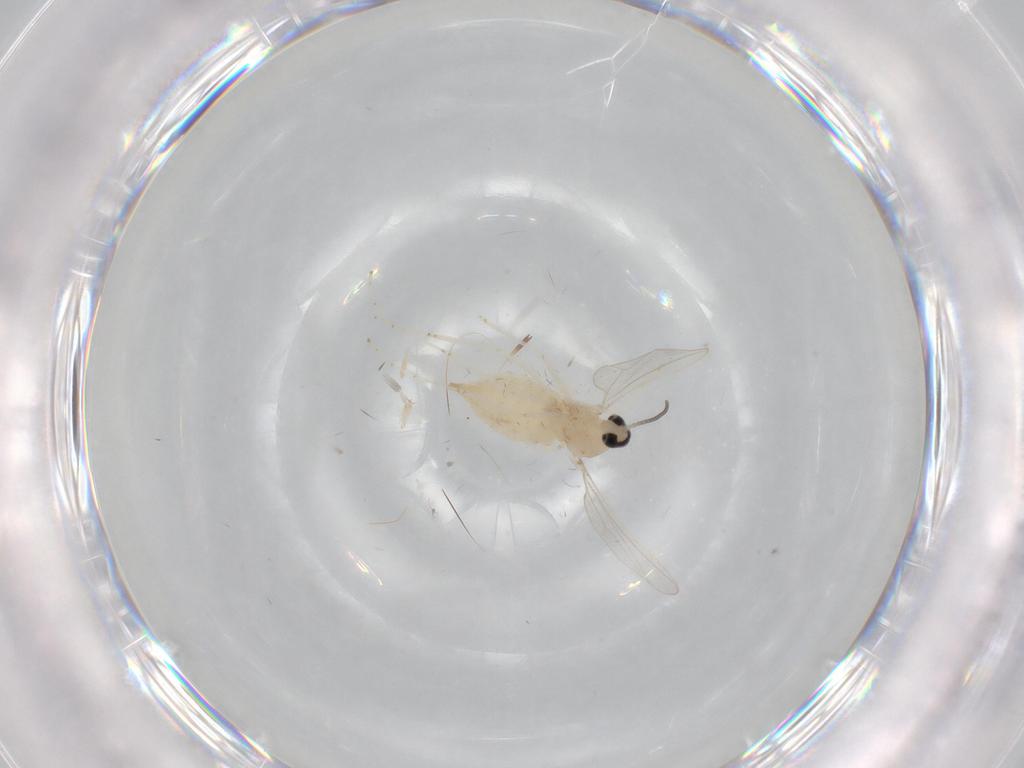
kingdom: Animalia
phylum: Arthropoda
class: Insecta
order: Diptera
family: Cecidomyiidae
